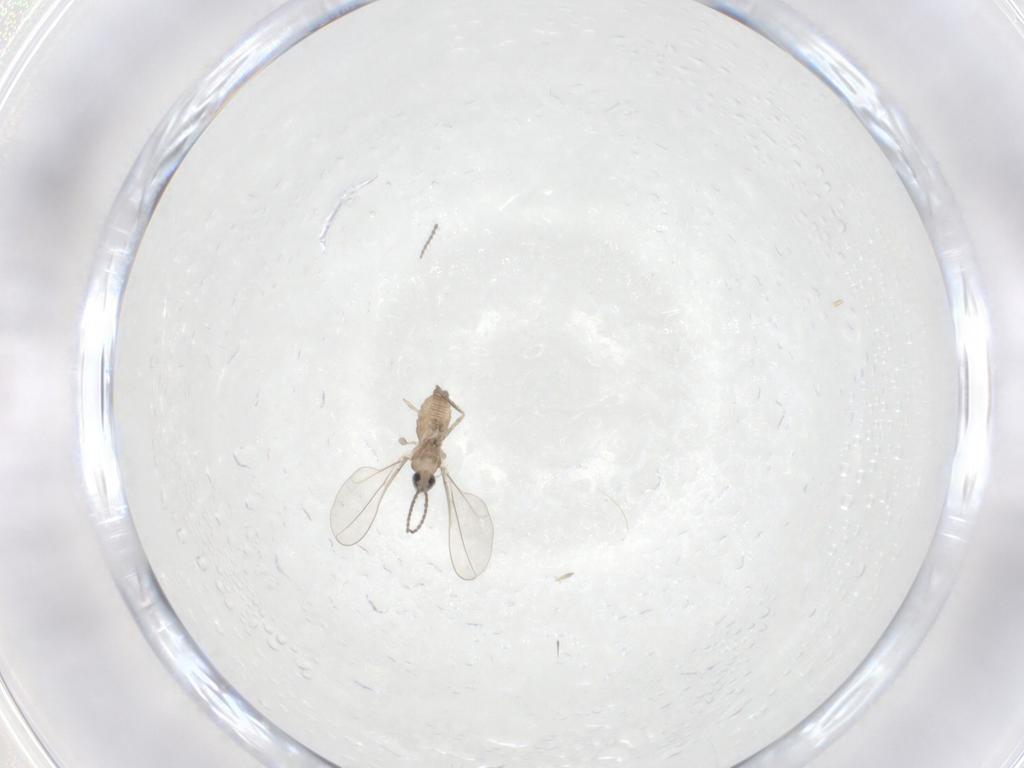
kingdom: Animalia
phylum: Arthropoda
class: Insecta
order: Diptera
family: Cecidomyiidae
